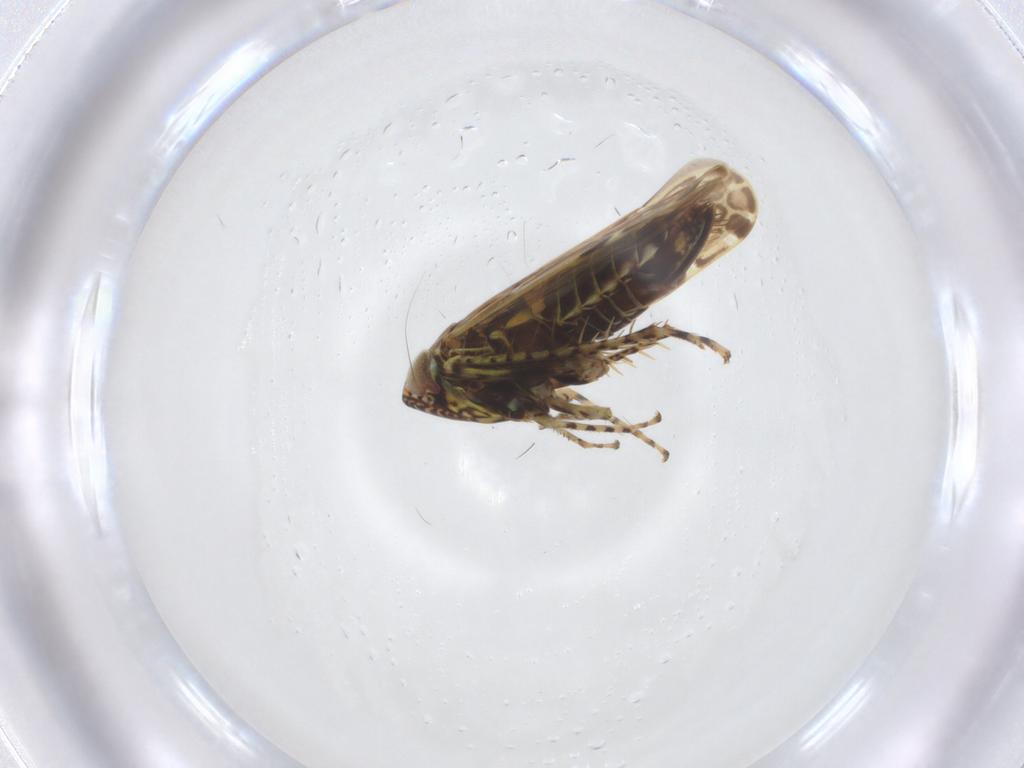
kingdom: Animalia
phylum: Arthropoda
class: Insecta
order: Hemiptera
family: Cicadellidae
